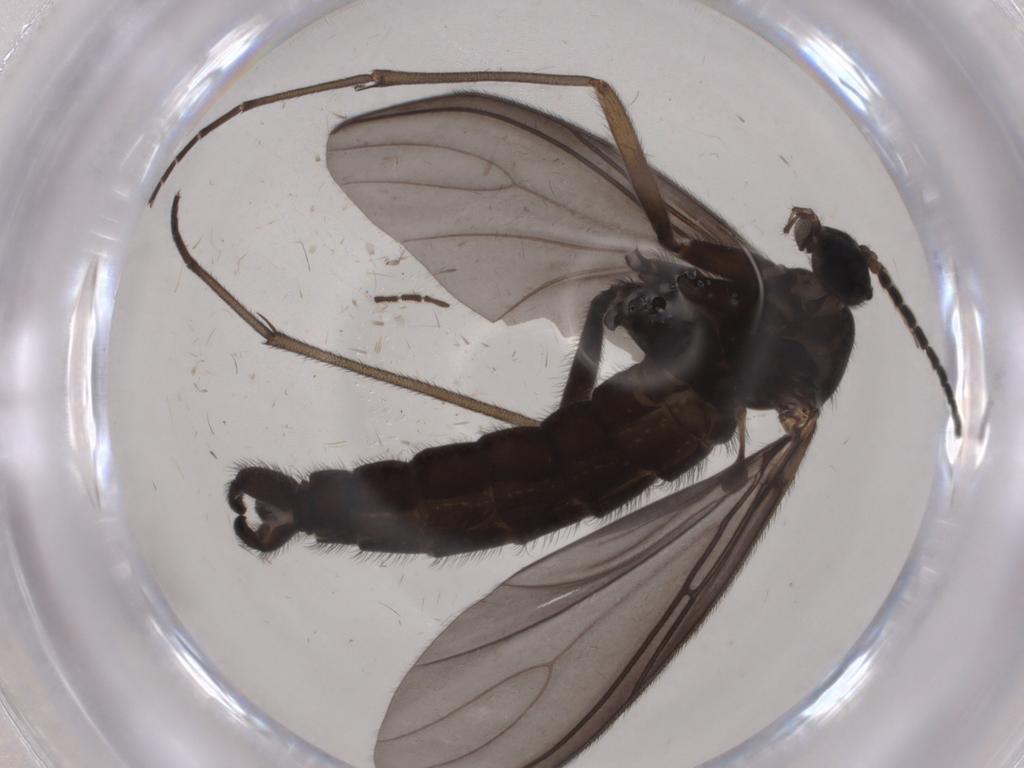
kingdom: Animalia
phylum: Arthropoda
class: Insecta
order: Diptera
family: Sciaridae
